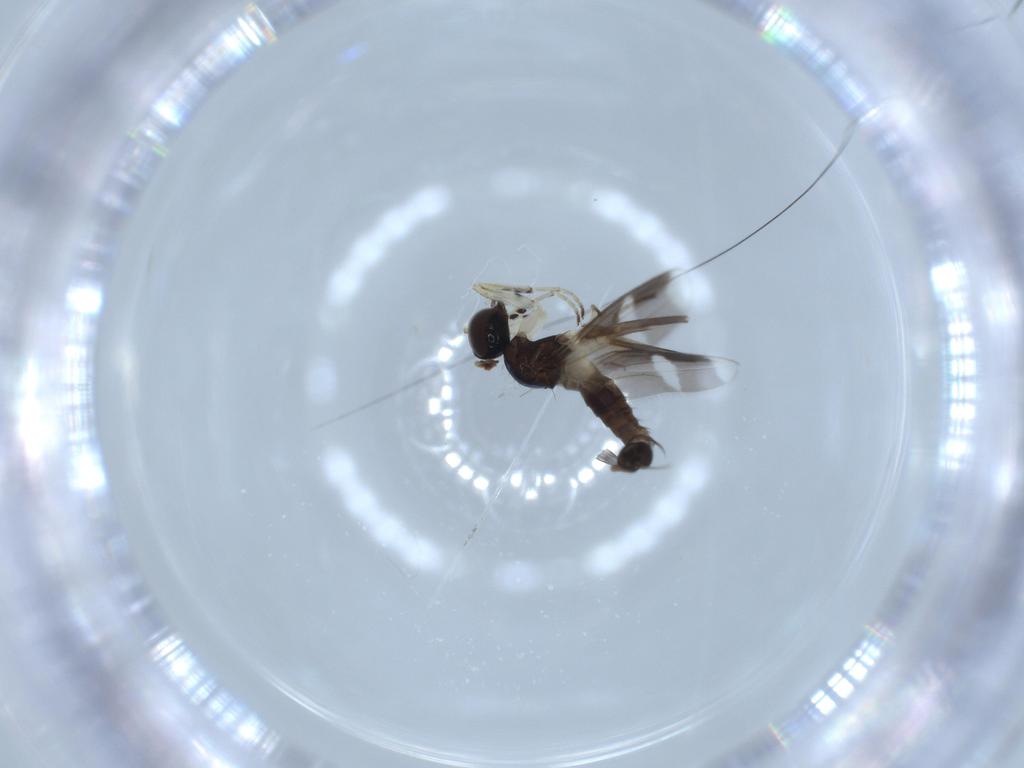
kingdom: Animalia
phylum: Arthropoda
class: Insecta
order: Diptera
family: Hybotidae
